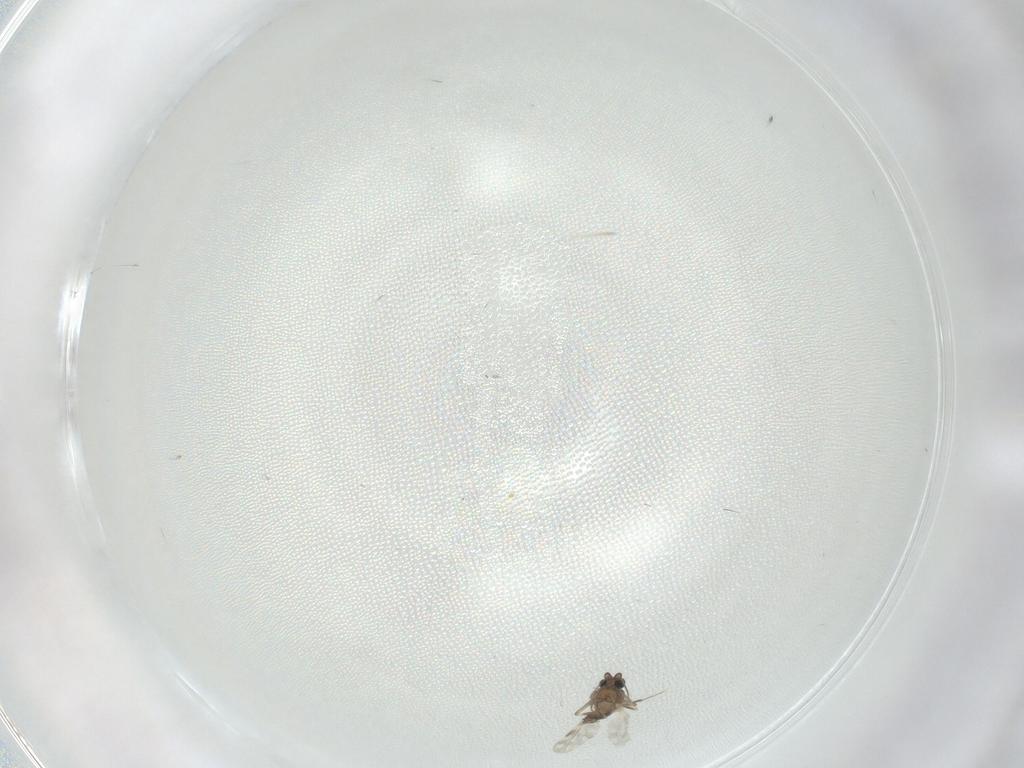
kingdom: Animalia
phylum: Arthropoda
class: Insecta
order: Diptera
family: Cecidomyiidae
